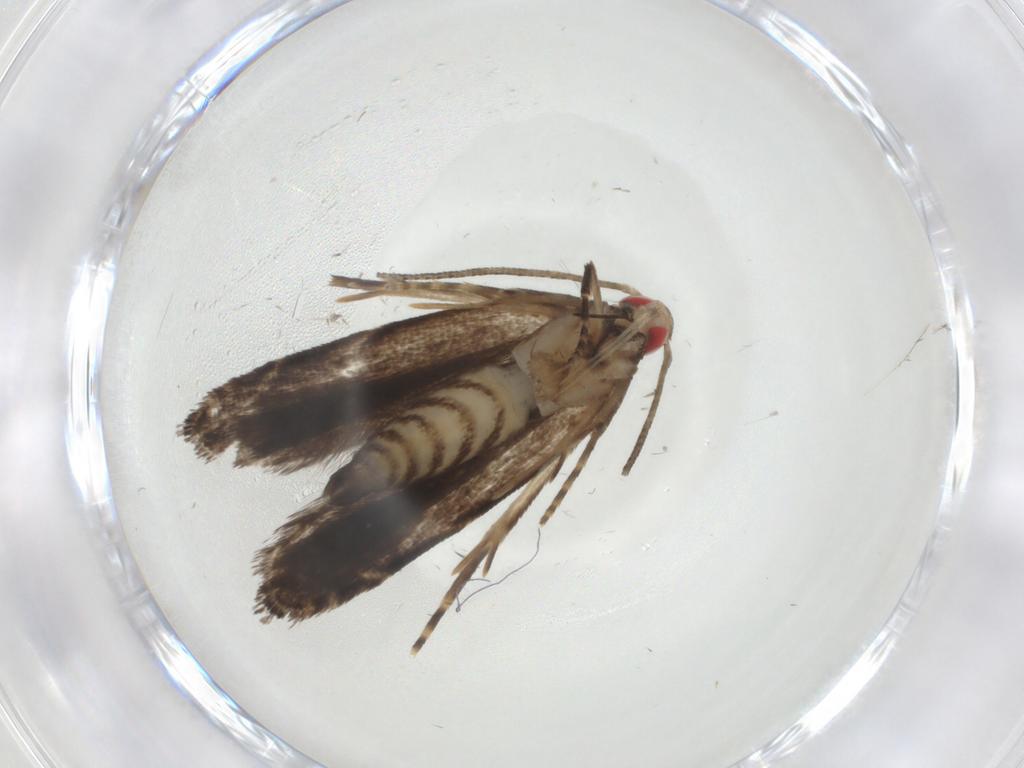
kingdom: Animalia
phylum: Arthropoda
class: Insecta
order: Lepidoptera
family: Gelechiidae
